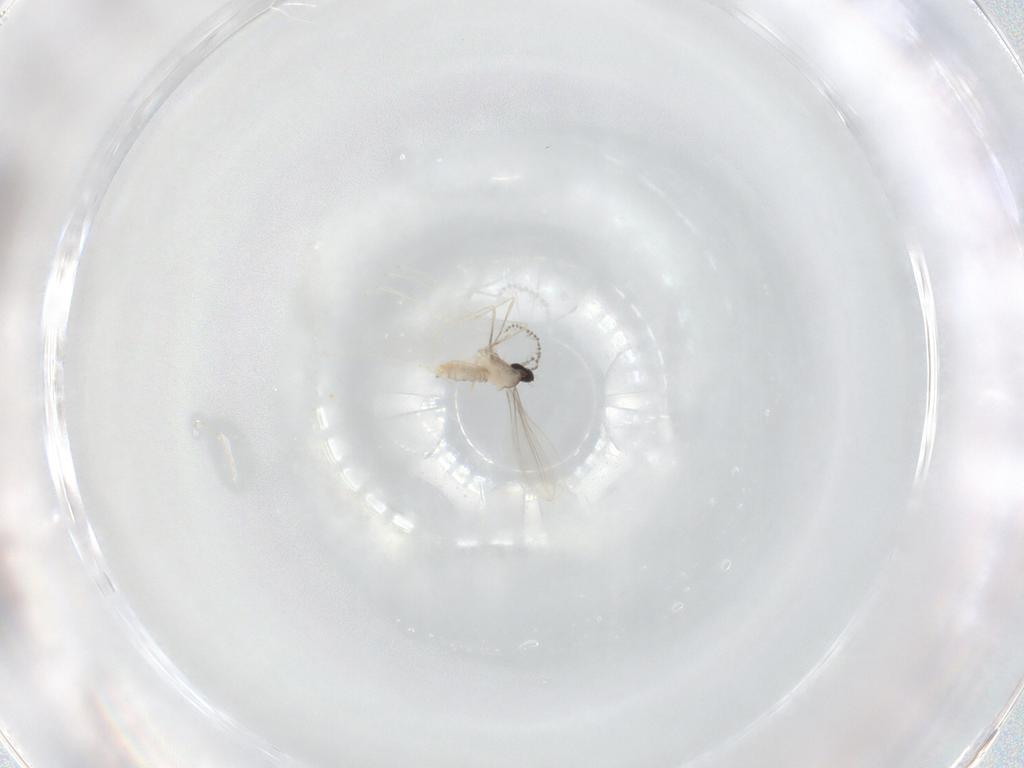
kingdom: Animalia
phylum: Arthropoda
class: Insecta
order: Diptera
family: Cecidomyiidae
